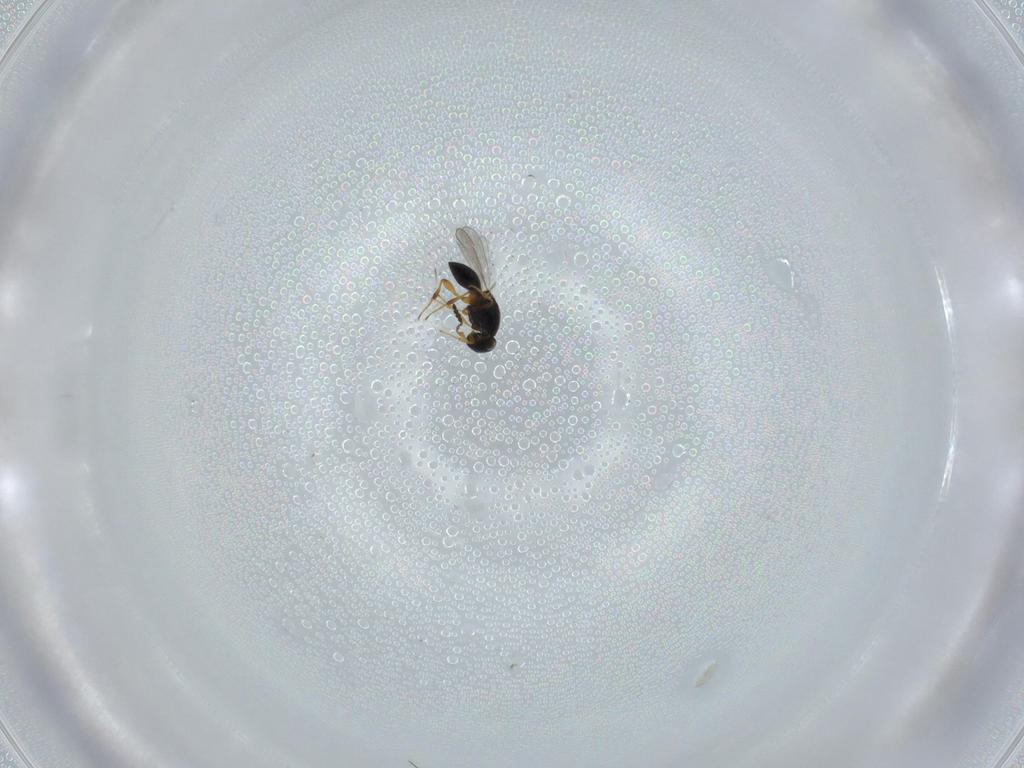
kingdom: Animalia
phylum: Arthropoda
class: Insecta
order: Hymenoptera
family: Platygastridae
